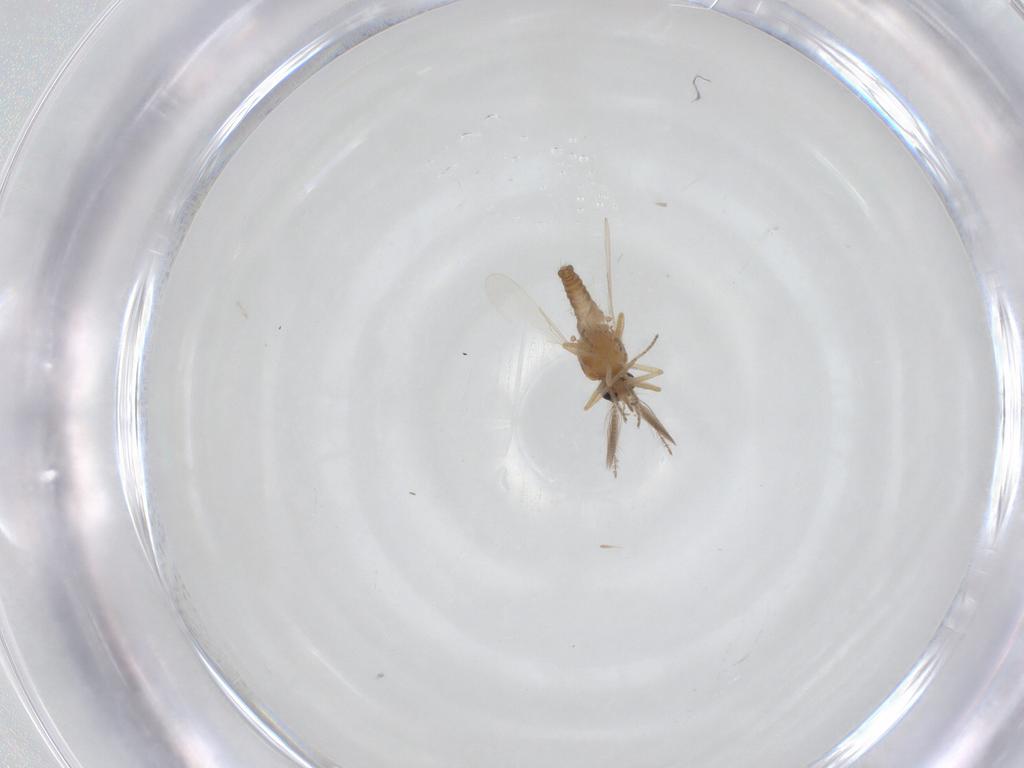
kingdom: Animalia
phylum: Arthropoda
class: Insecta
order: Diptera
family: Ceratopogonidae
